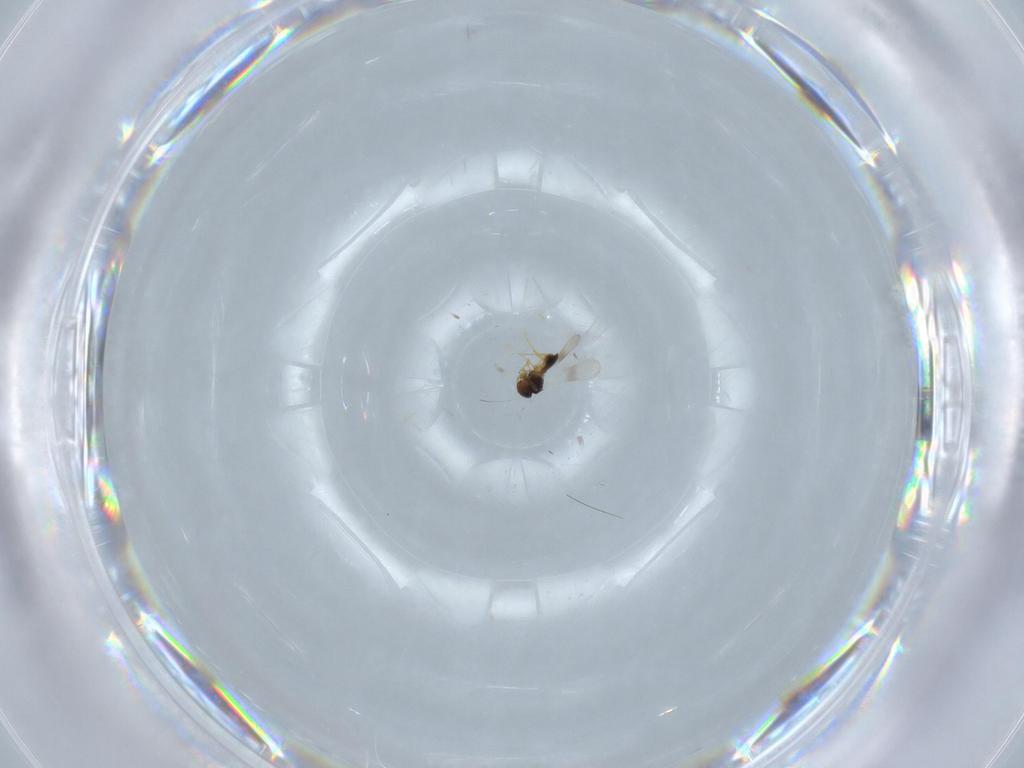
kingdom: Animalia
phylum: Arthropoda
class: Insecta
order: Hymenoptera
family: Platygastridae
